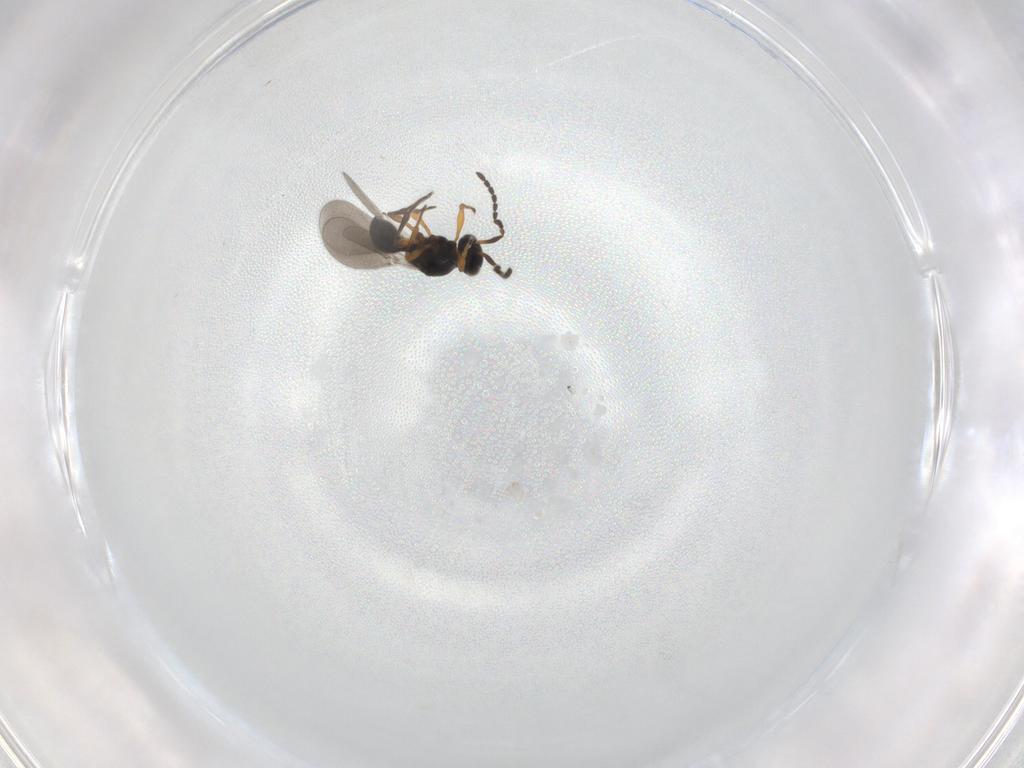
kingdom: Animalia
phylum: Arthropoda
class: Insecta
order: Hymenoptera
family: Platygastridae
